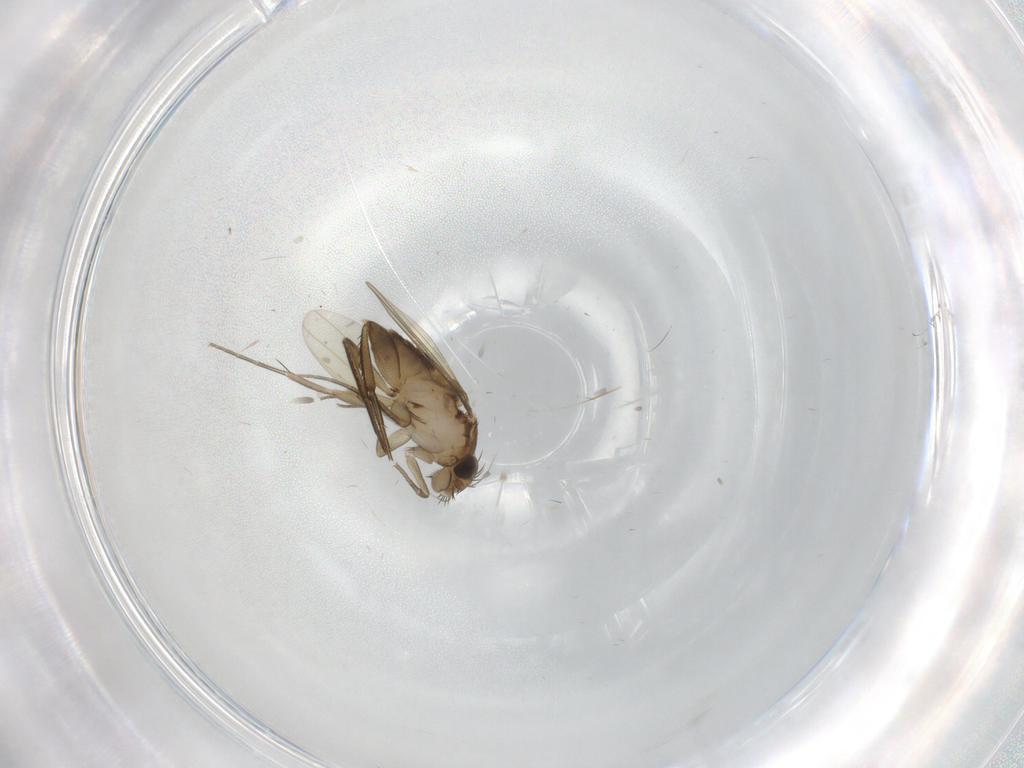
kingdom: Animalia
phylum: Arthropoda
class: Insecta
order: Diptera
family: Phoridae
